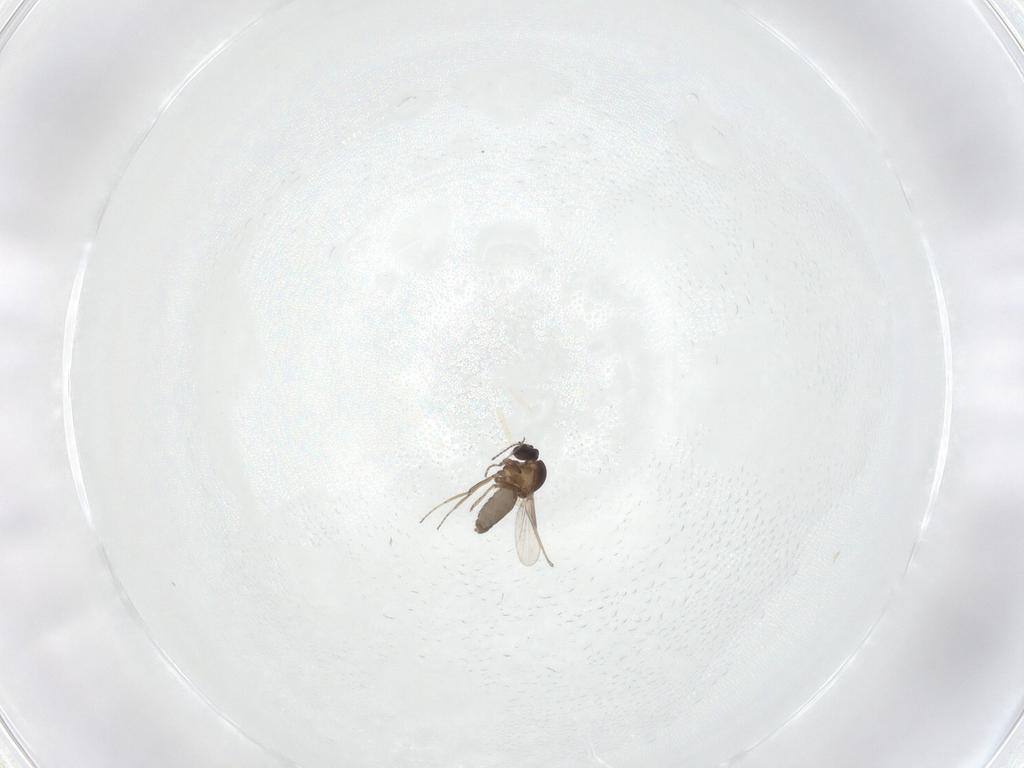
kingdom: Animalia
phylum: Arthropoda
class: Insecta
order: Diptera
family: Ceratopogonidae
